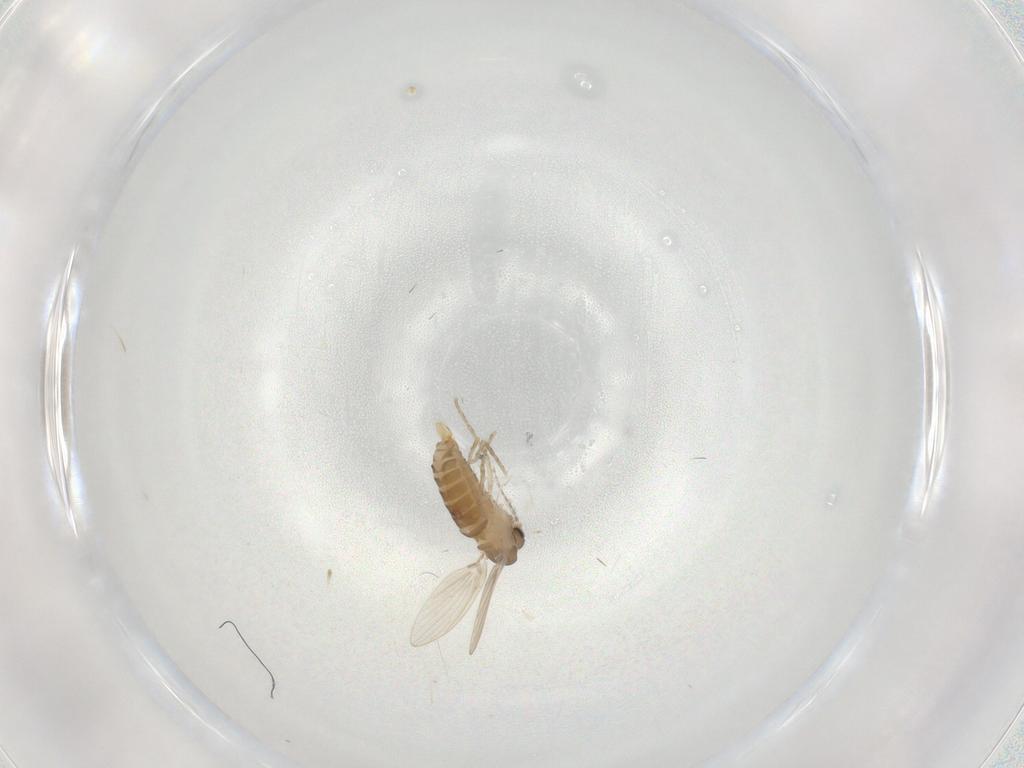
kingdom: Animalia
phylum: Arthropoda
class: Insecta
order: Diptera
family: Psychodidae
